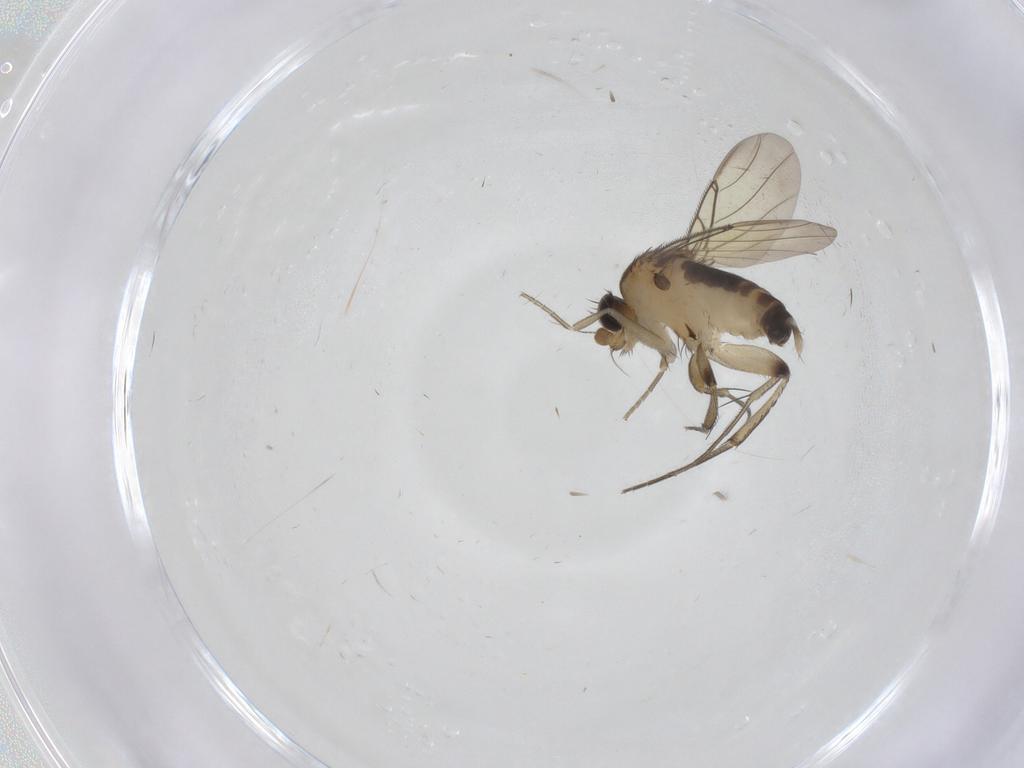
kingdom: Animalia
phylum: Arthropoda
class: Insecta
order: Diptera
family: Phoridae
